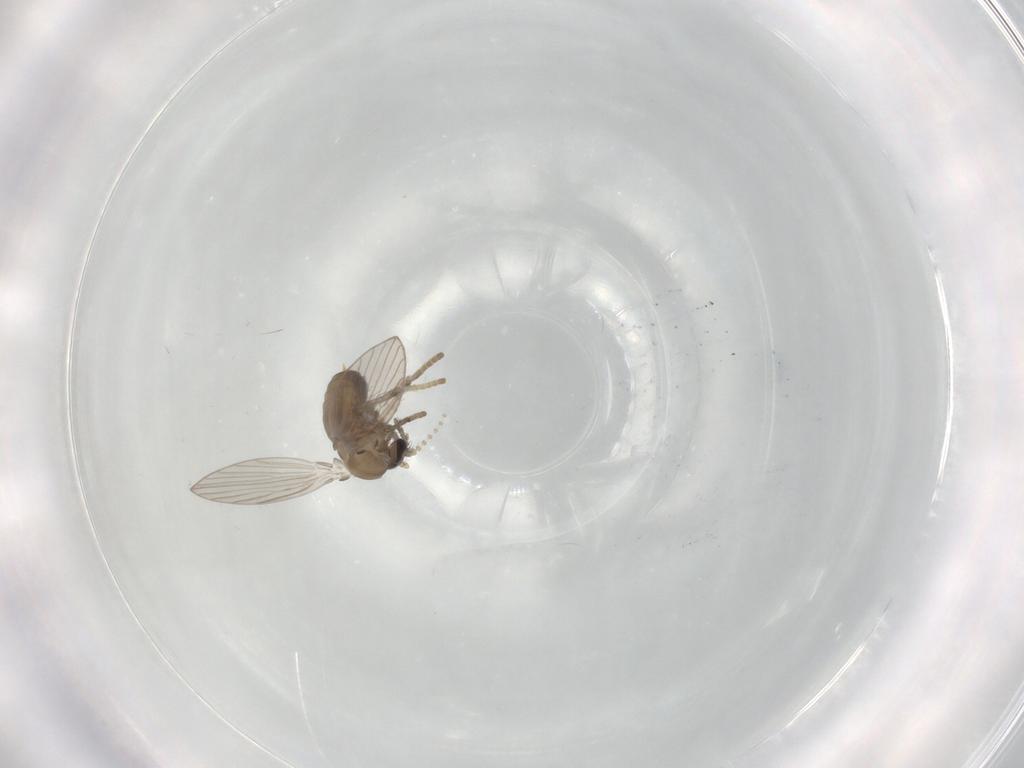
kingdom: Animalia
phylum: Arthropoda
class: Insecta
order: Diptera
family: Psychodidae
